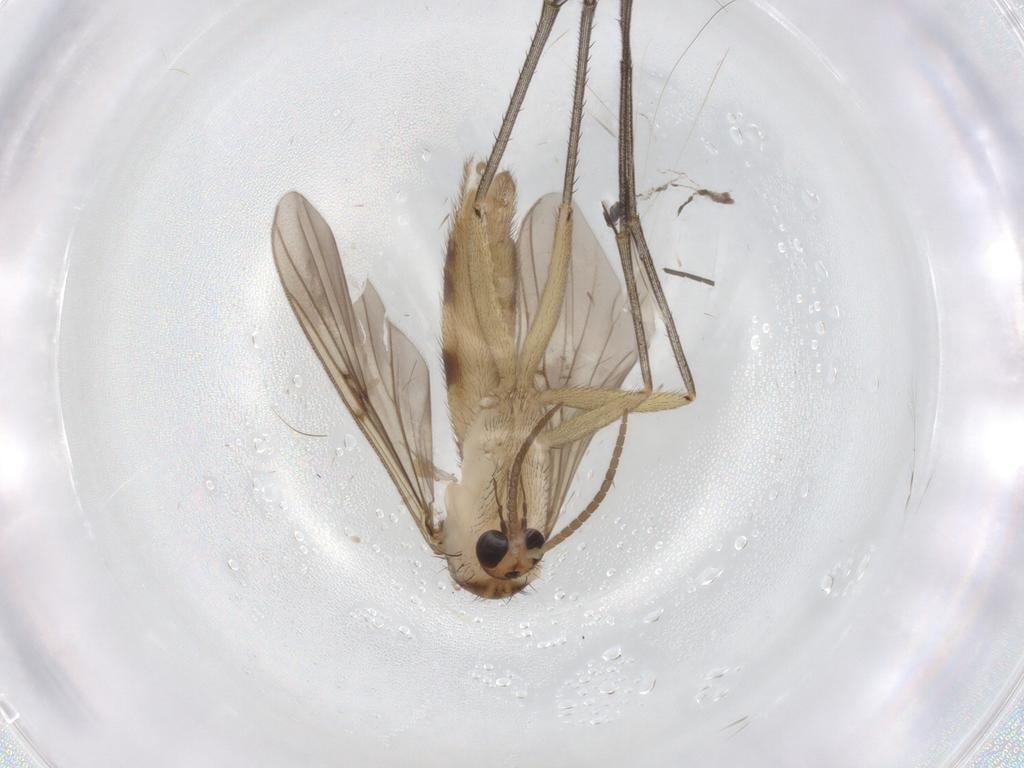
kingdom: Animalia
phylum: Arthropoda
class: Insecta
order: Diptera
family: Mycetophilidae
